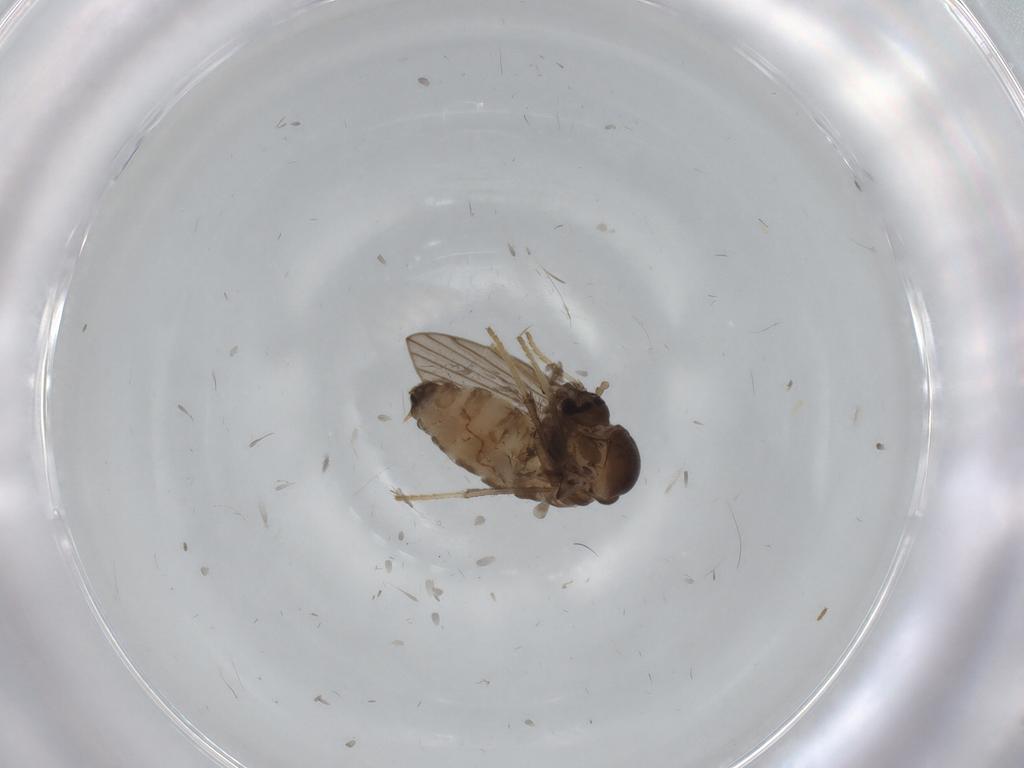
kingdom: Animalia
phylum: Arthropoda
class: Insecta
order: Diptera
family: Psychodidae
